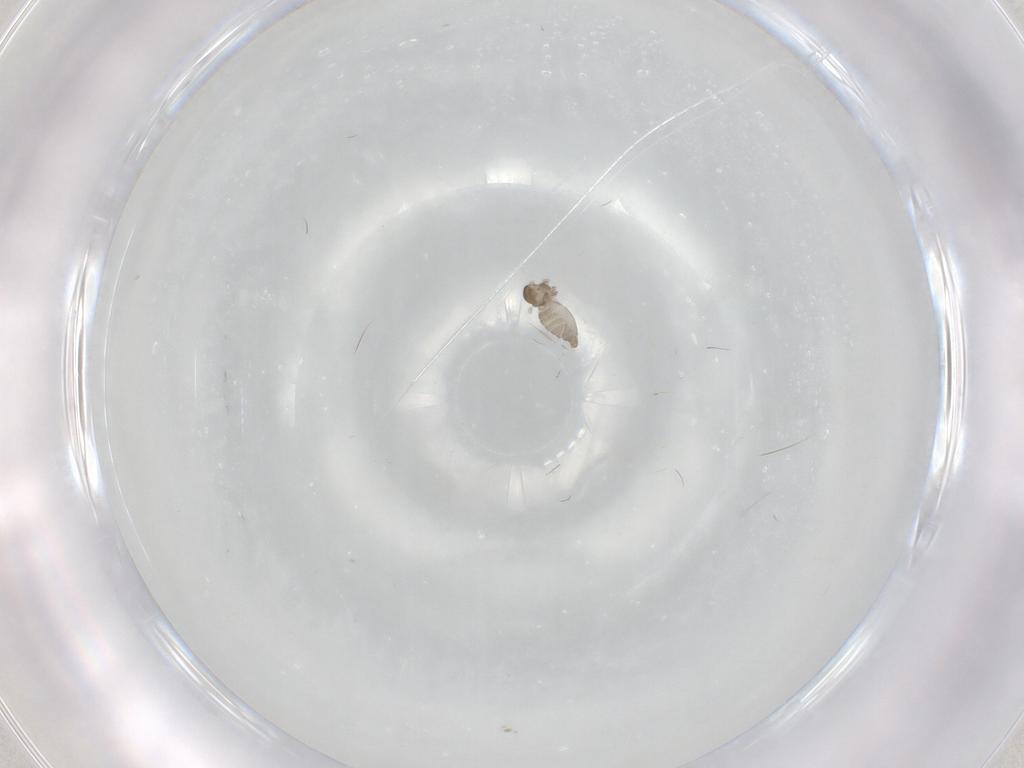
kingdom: Animalia
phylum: Arthropoda
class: Insecta
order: Diptera
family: Cecidomyiidae
